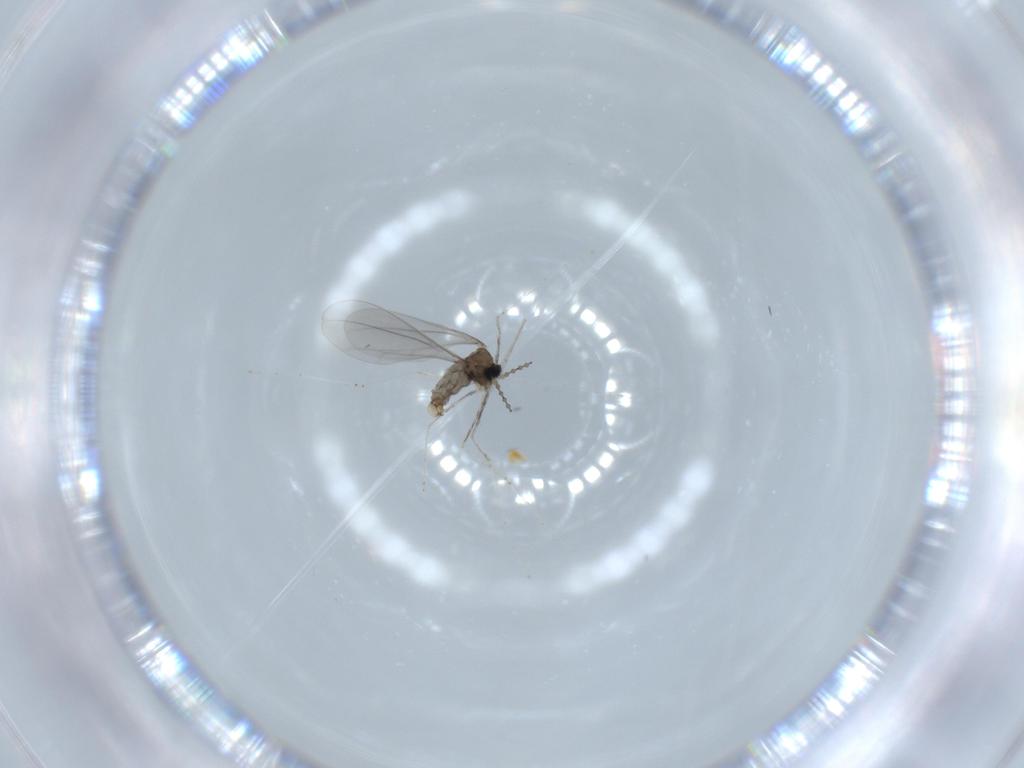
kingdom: Animalia
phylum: Arthropoda
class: Insecta
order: Diptera
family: Cecidomyiidae
